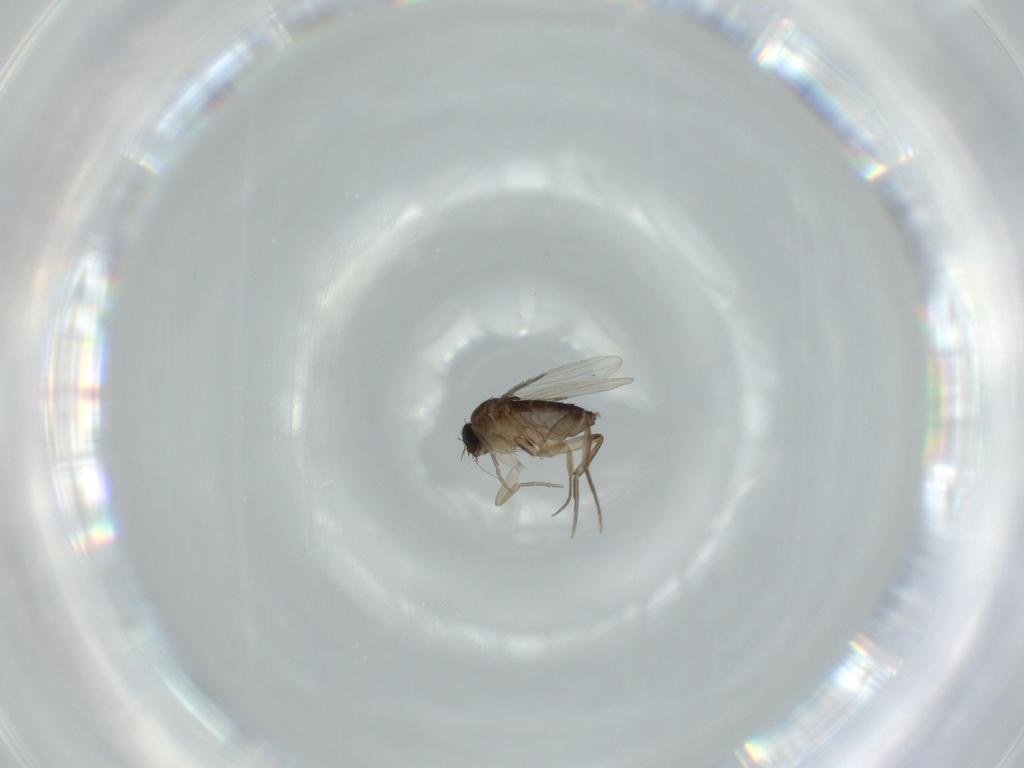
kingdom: Animalia
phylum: Arthropoda
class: Insecta
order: Diptera
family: Phoridae
